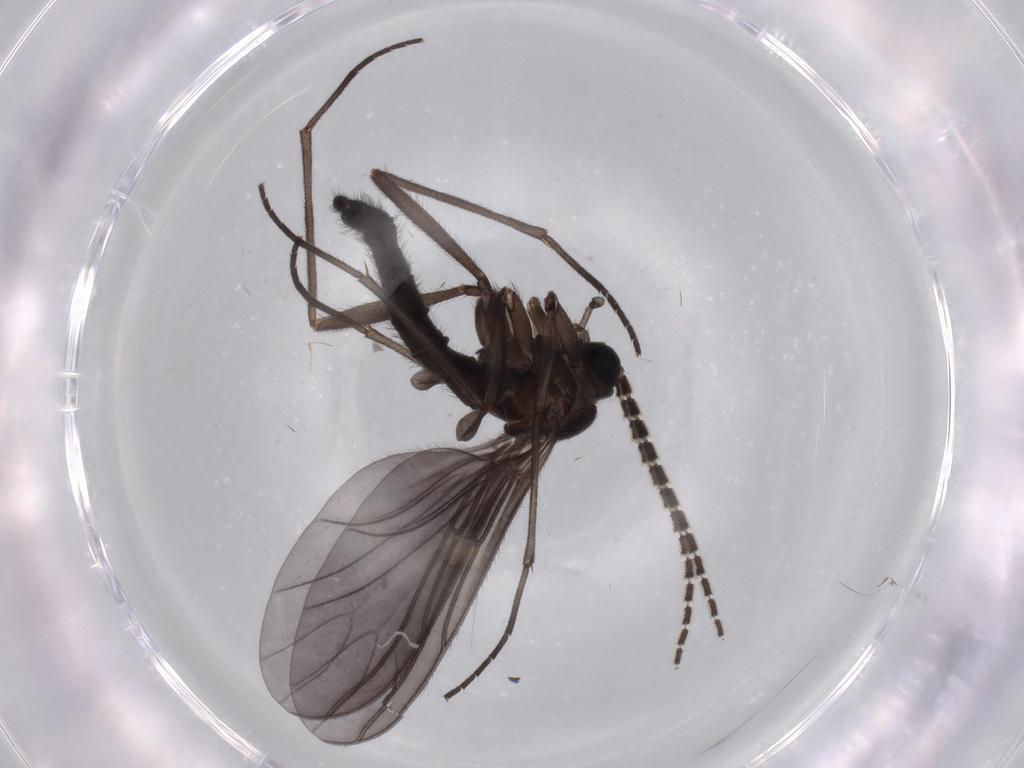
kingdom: Animalia
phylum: Arthropoda
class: Insecta
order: Diptera
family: Sciaridae
